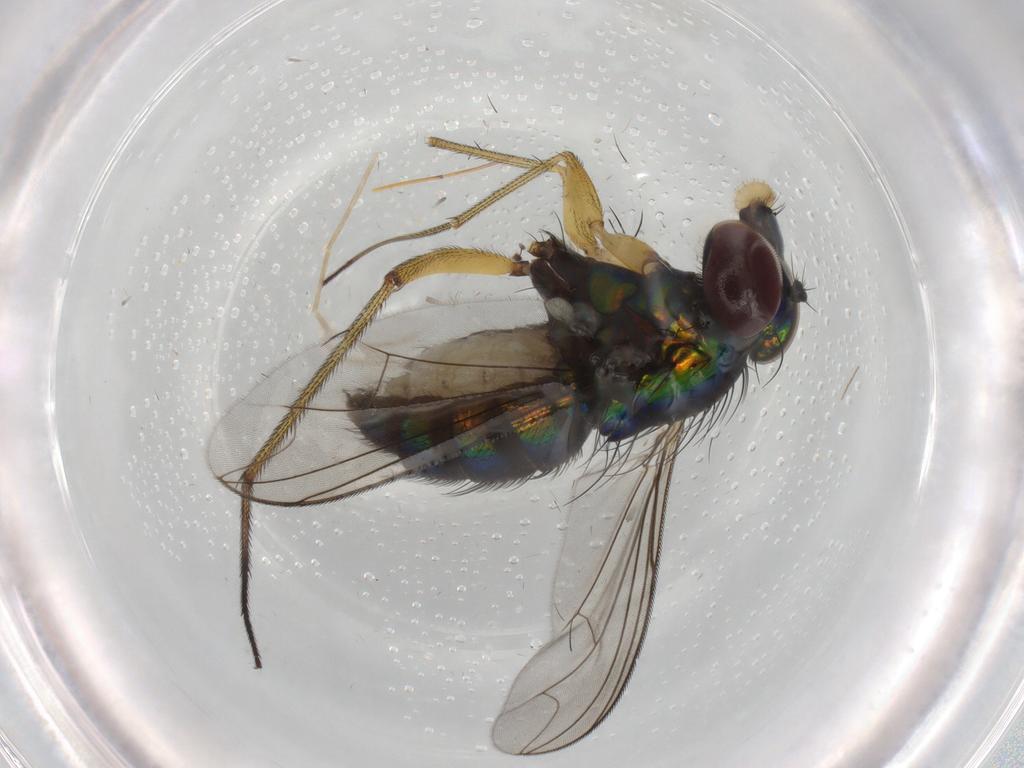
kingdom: Animalia
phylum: Arthropoda
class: Insecta
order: Diptera
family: Dolichopodidae
